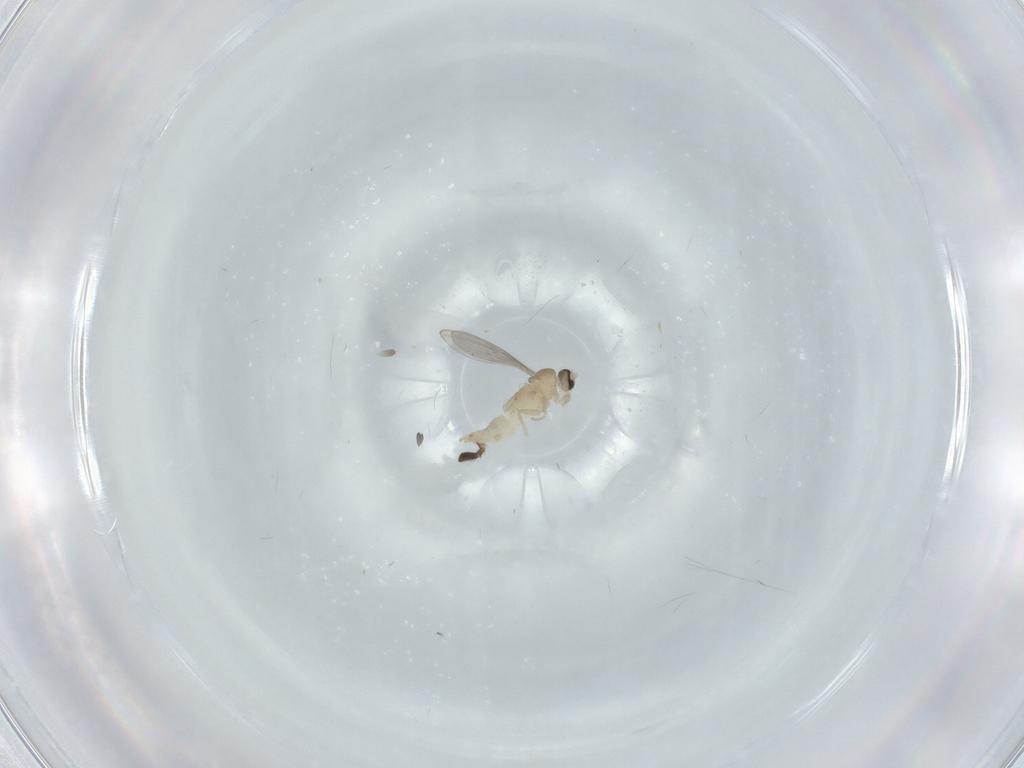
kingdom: Animalia
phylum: Arthropoda
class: Insecta
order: Diptera
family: Cecidomyiidae
